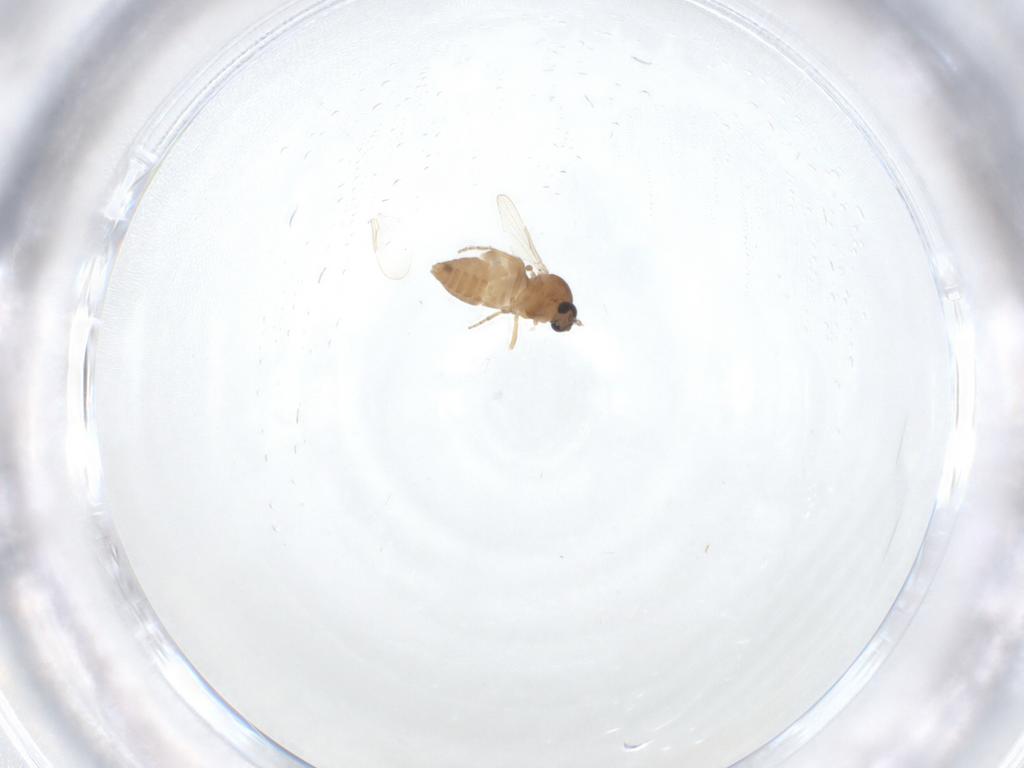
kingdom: Animalia
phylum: Arthropoda
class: Insecta
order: Diptera
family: Ceratopogonidae
